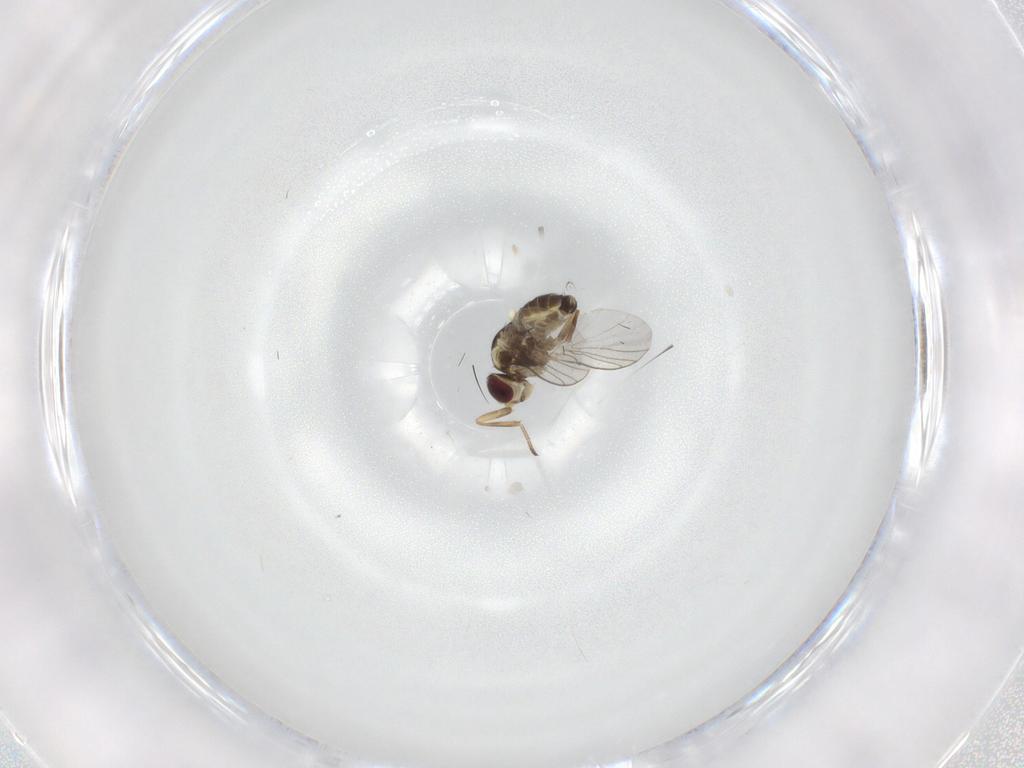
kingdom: Animalia
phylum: Arthropoda
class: Insecta
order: Diptera
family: Agromyzidae
